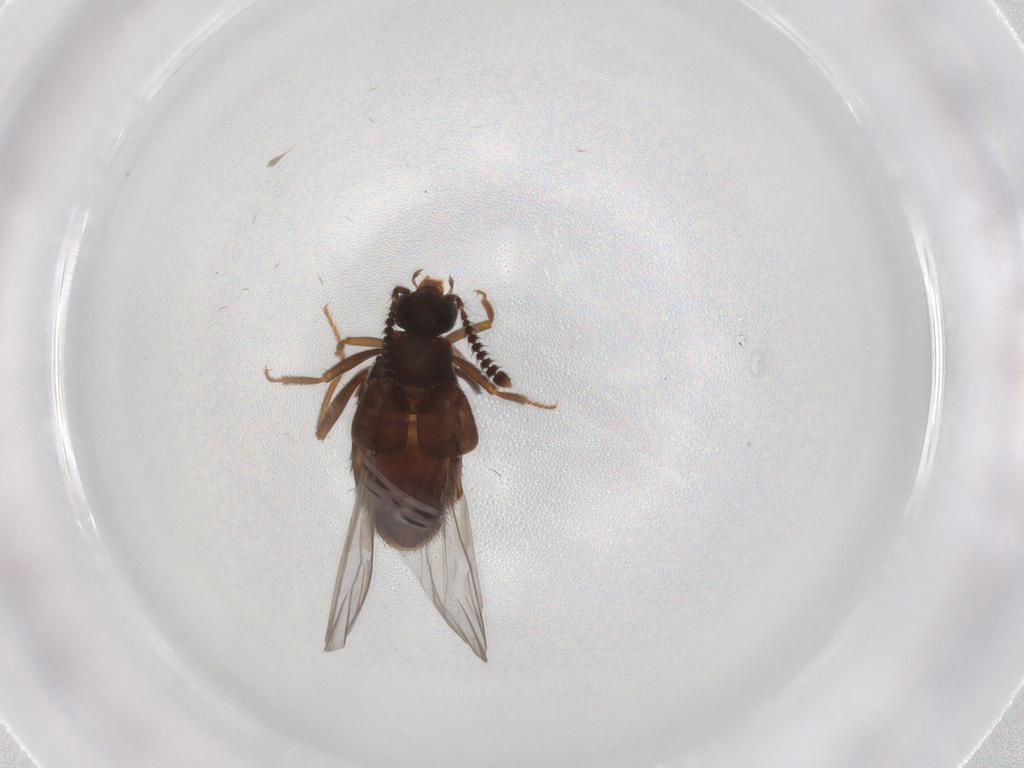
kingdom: Animalia
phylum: Arthropoda
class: Insecta
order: Coleoptera
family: Staphylinidae
